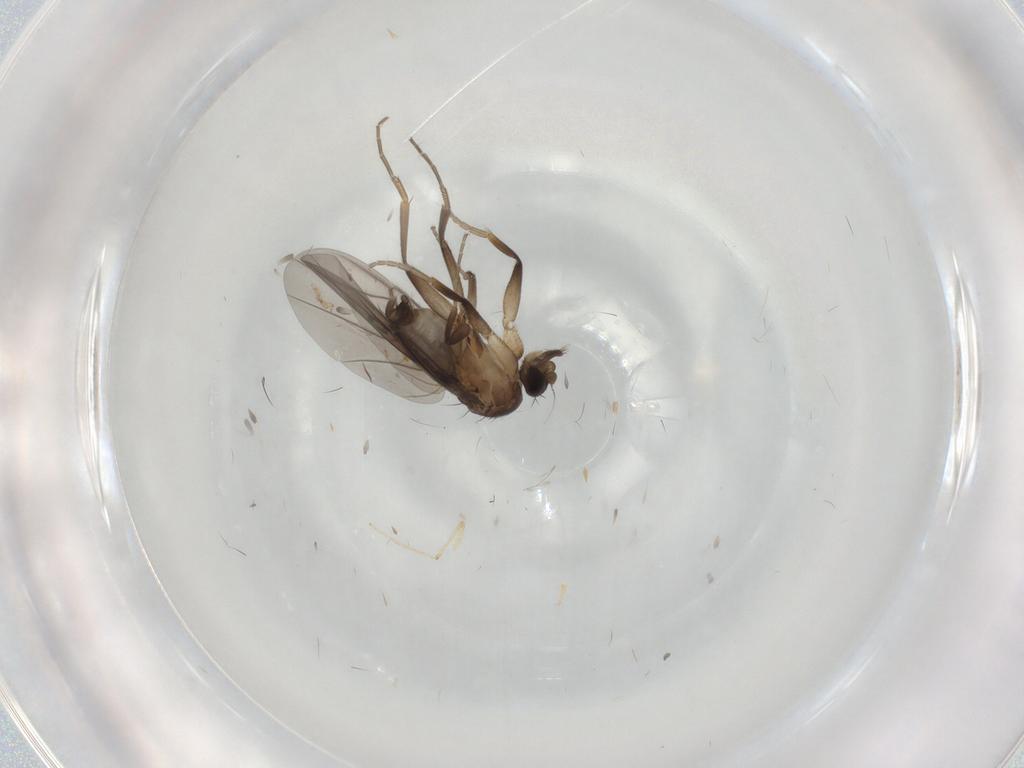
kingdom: Animalia
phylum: Arthropoda
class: Insecta
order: Diptera
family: Phoridae
